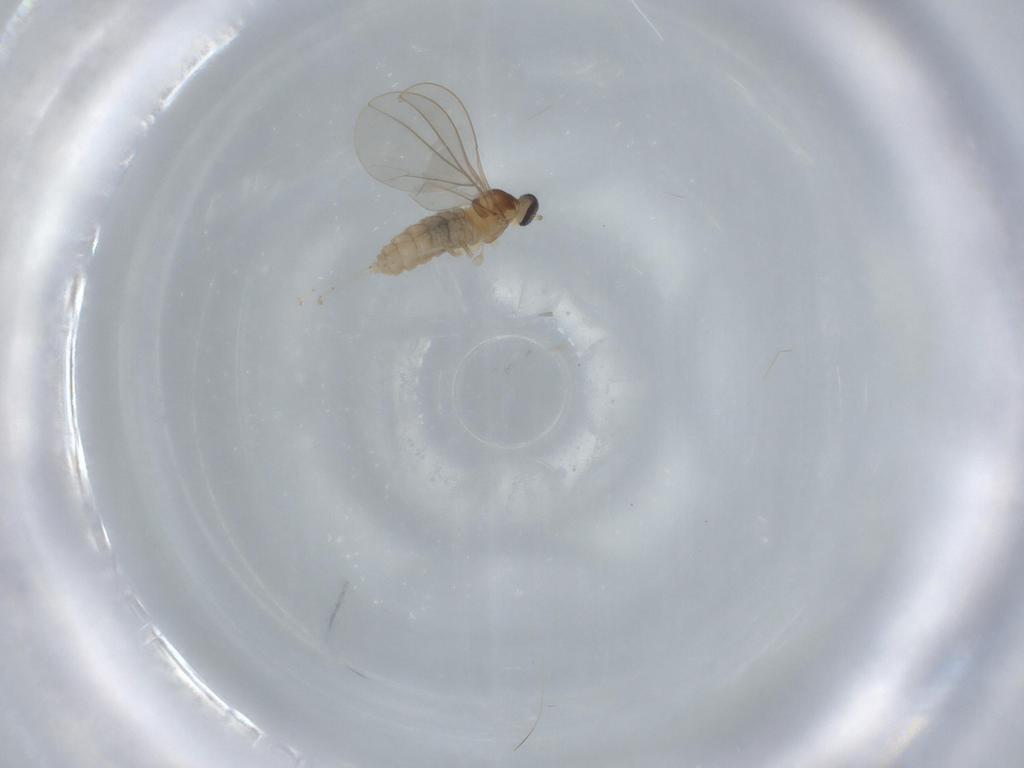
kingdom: Animalia
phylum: Arthropoda
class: Insecta
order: Diptera
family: Cecidomyiidae
